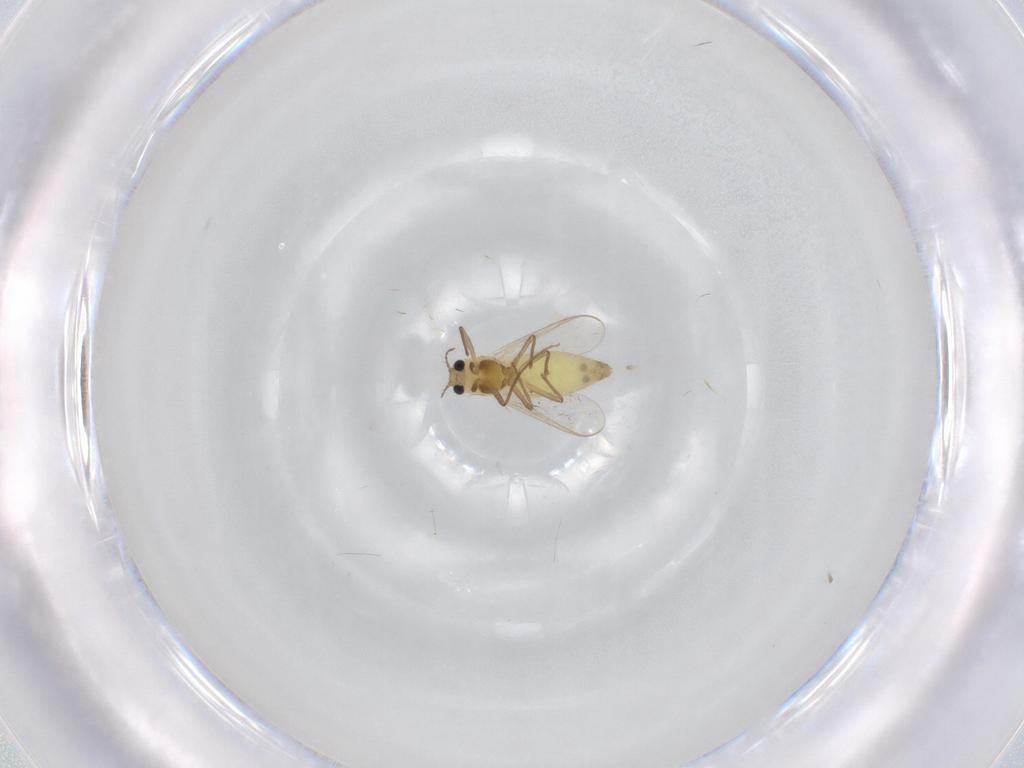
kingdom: Animalia
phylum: Arthropoda
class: Insecta
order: Diptera
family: Chironomidae
